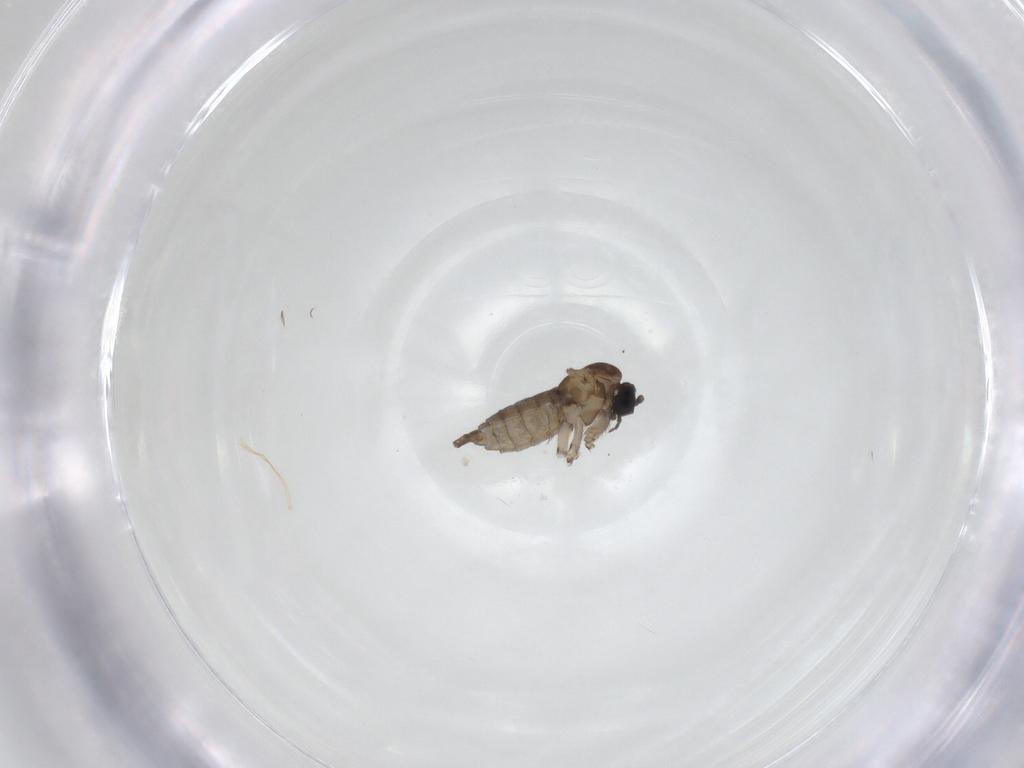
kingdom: Animalia
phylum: Arthropoda
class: Insecta
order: Diptera
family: Sciaridae
